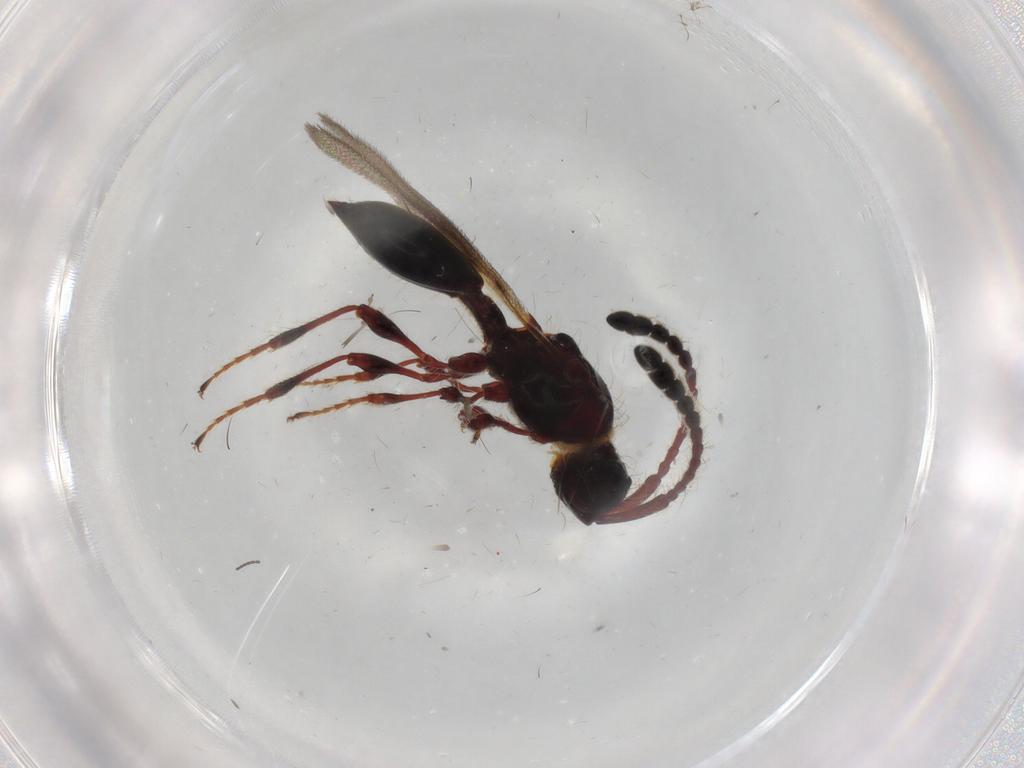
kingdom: Animalia
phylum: Arthropoda
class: Insecta
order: Hymenoptera
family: Diapriidae
